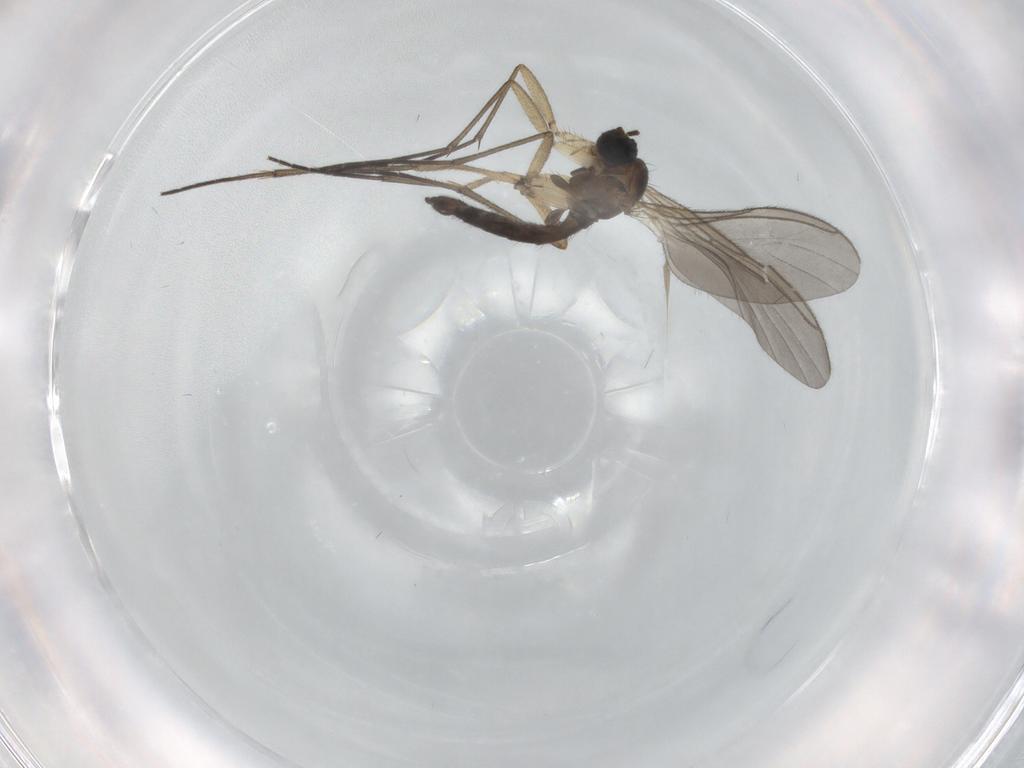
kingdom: Animalia
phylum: Arthropoda
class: Insecta
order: Diptera
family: Sciaridae
